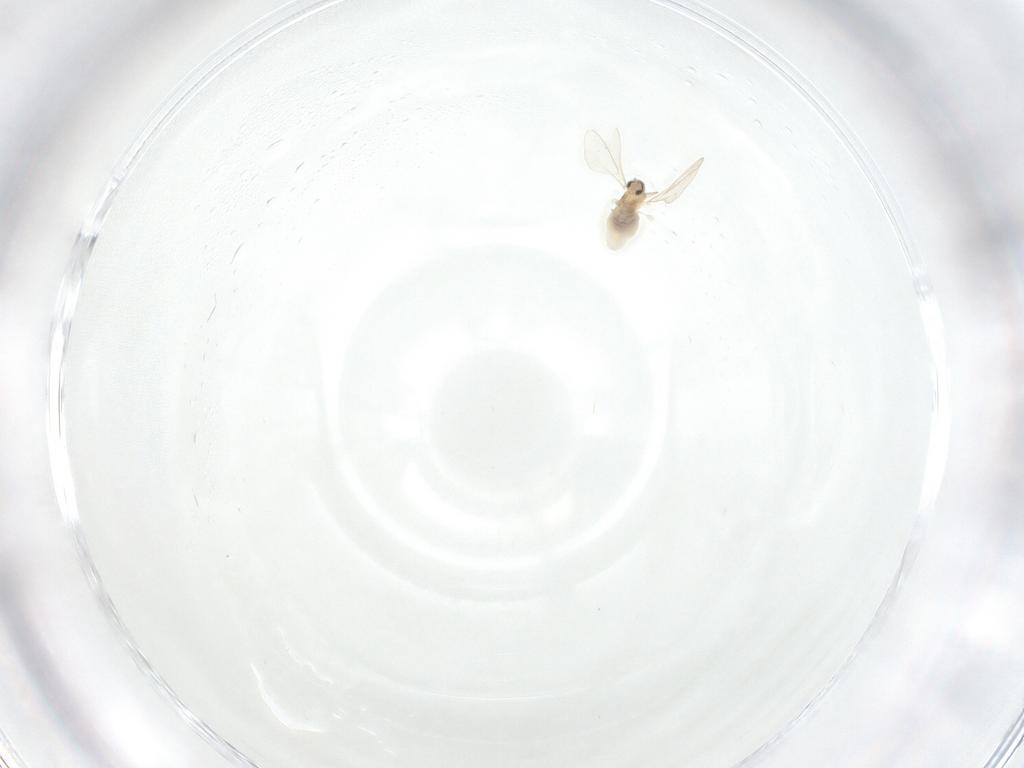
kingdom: Animalia
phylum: Arthropoda
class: Insecta
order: Diptera
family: Cecidomyiidae
